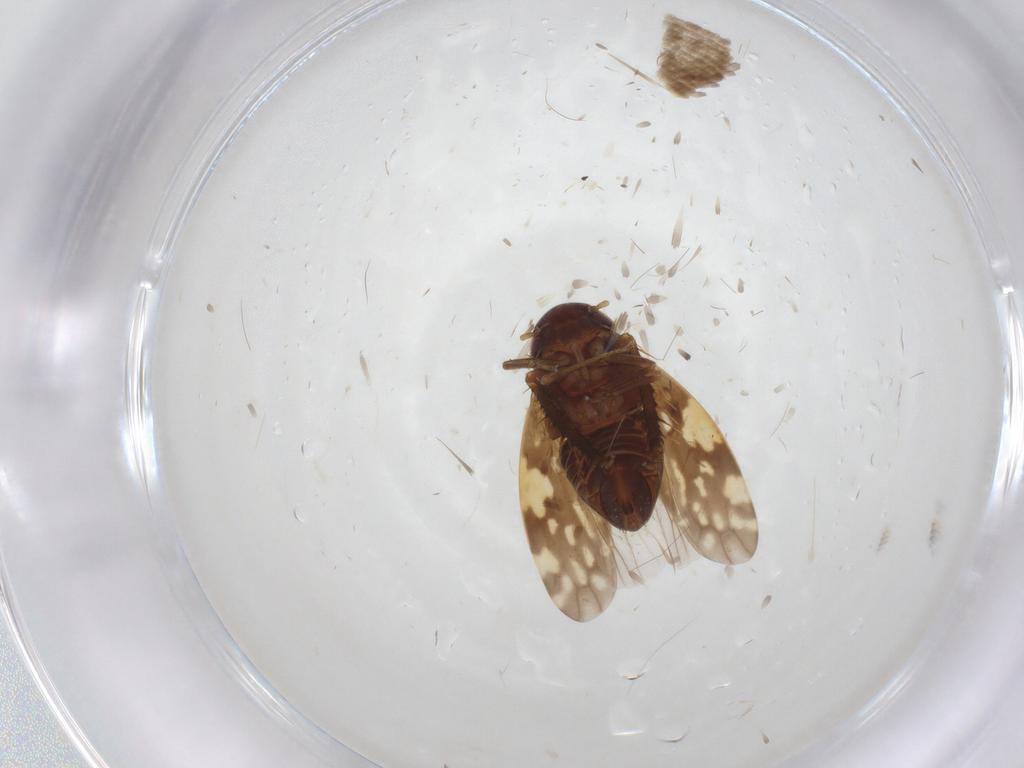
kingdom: Animalia
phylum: Arthropoda
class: Insecta
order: Hemiptera
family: Cicadellidae
